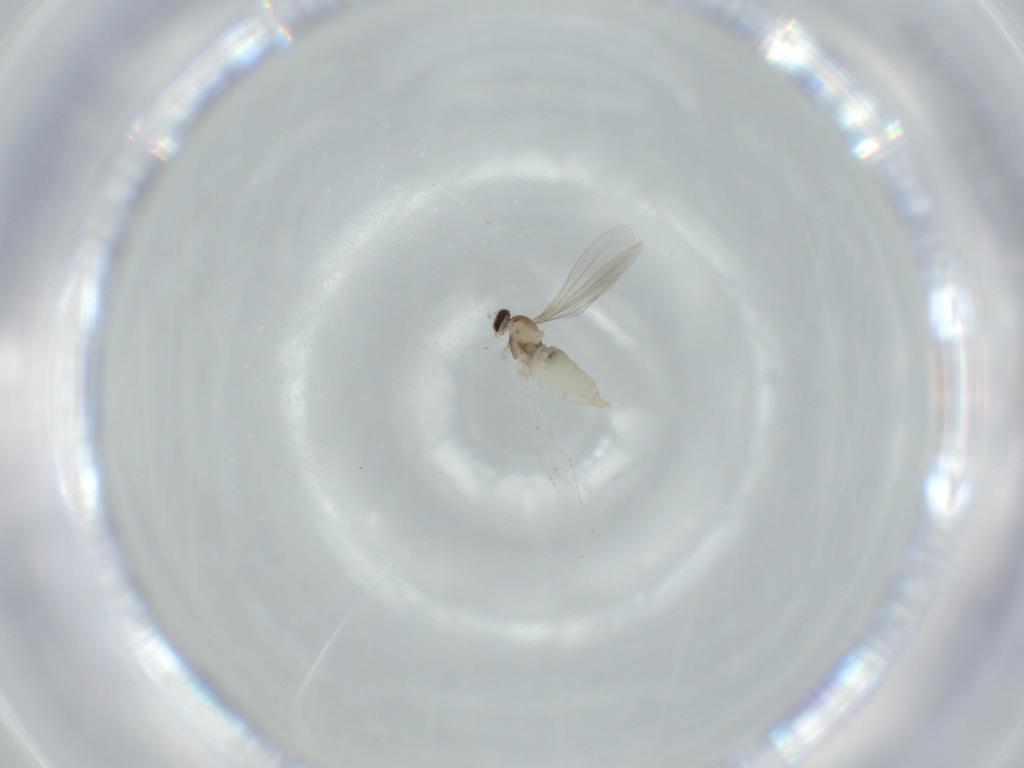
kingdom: Animalia
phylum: Arthropoda
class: Insecta
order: Diptera
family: Cecidomyiidae
